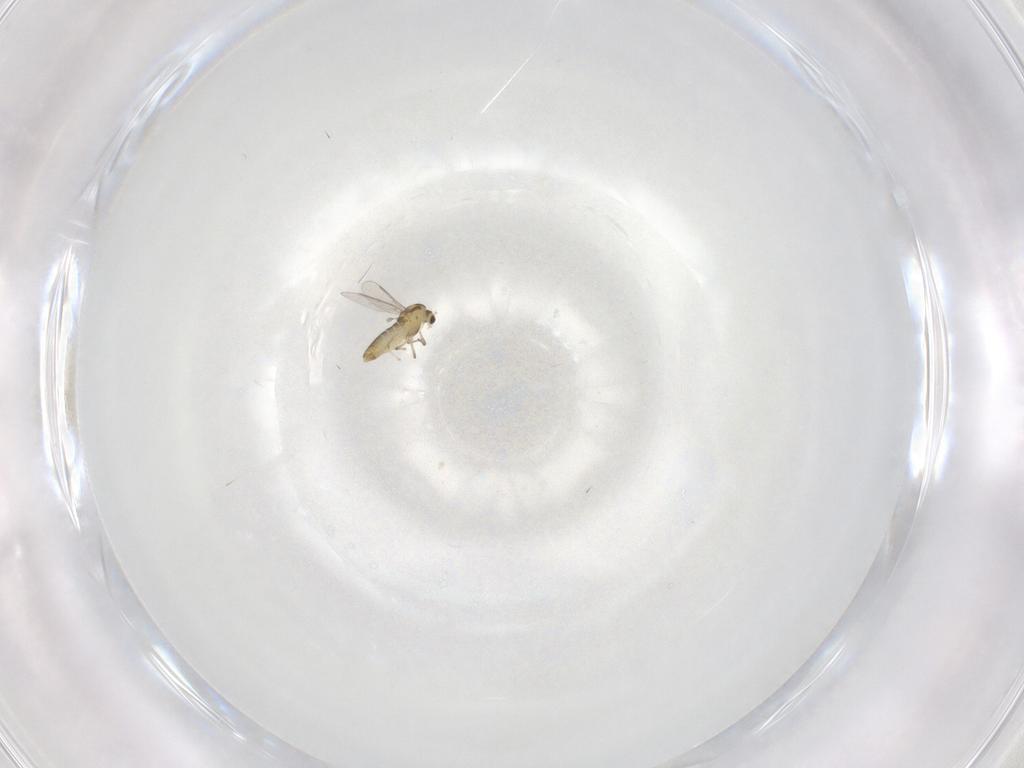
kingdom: Animalia
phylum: Arthropoda
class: Insecta
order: Diptera
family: Chironomidae
